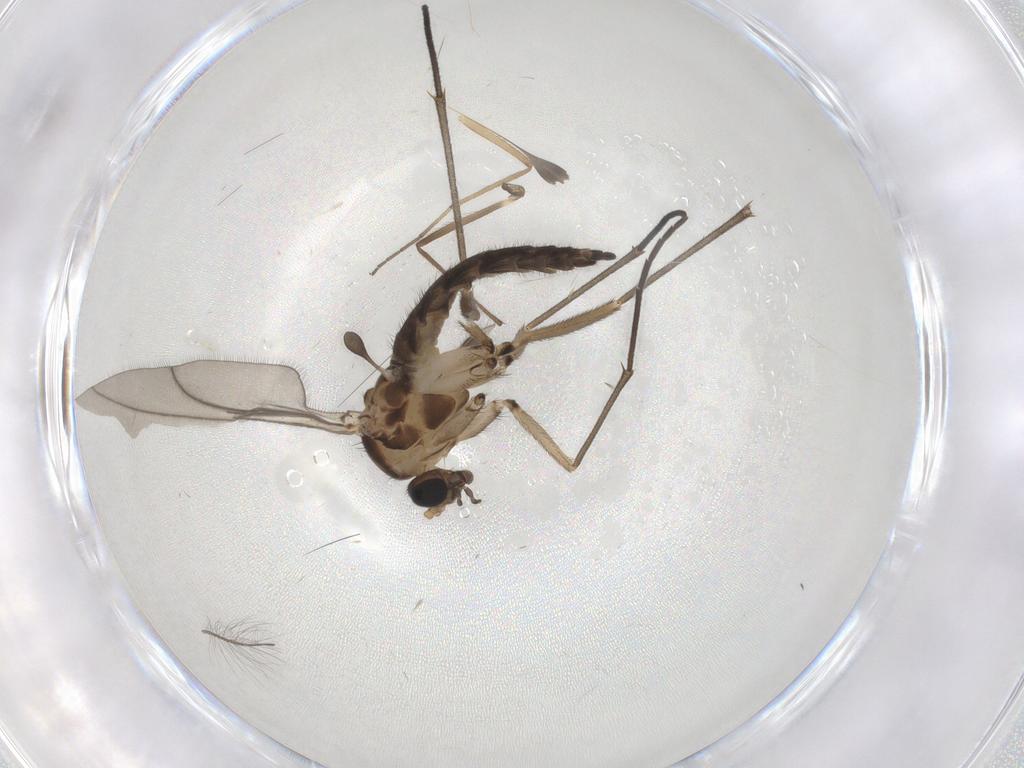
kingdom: Animalia
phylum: Arthropoda
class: Insecta
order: Diptera
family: Sciaridae
